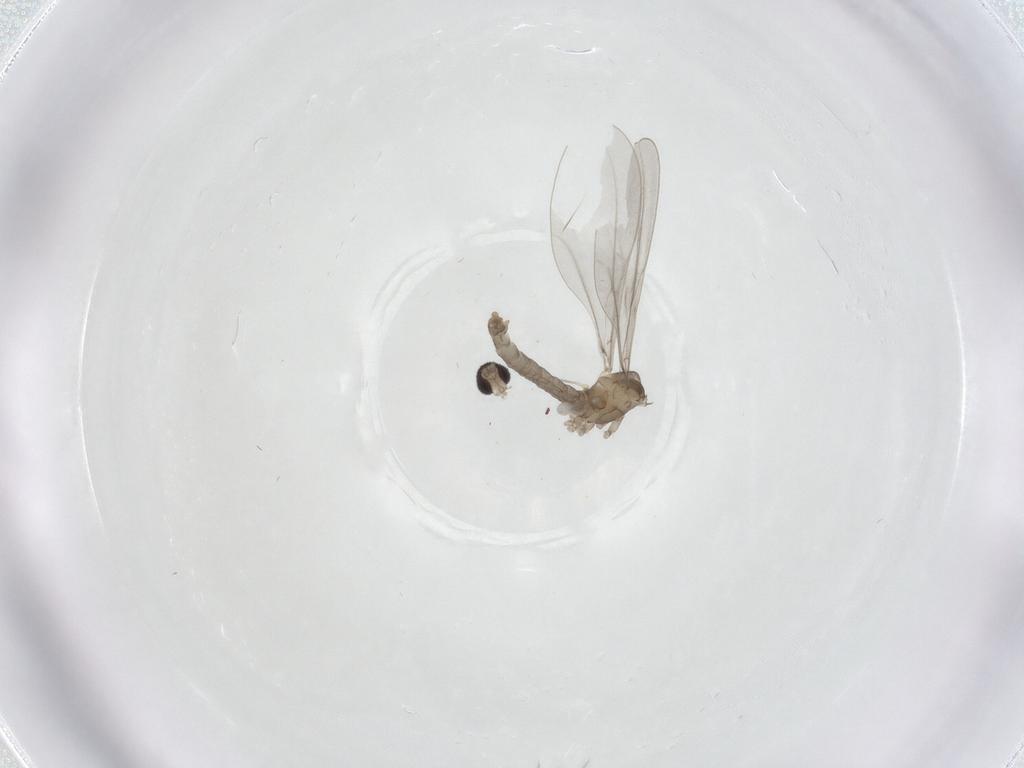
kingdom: Animalia
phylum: Arthropoda
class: Insecta
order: Diptera
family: Cecidomyiidae
